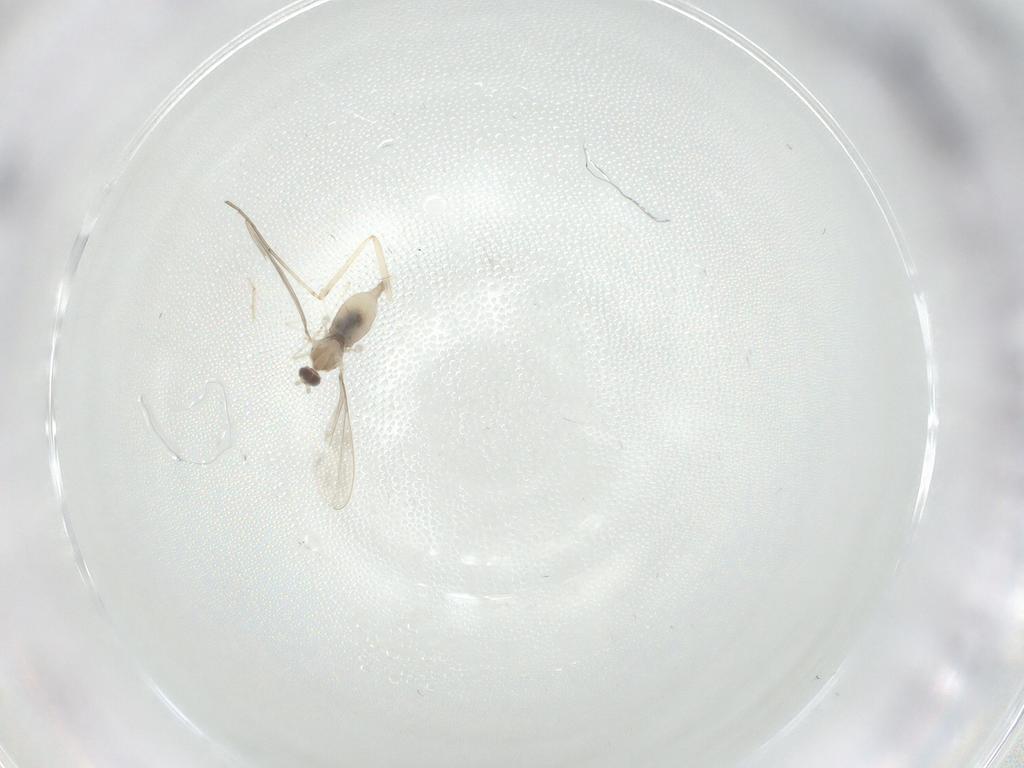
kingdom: Animalia
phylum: Arthropoda
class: Insecta
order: Diptera
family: Cecidomyiidae
